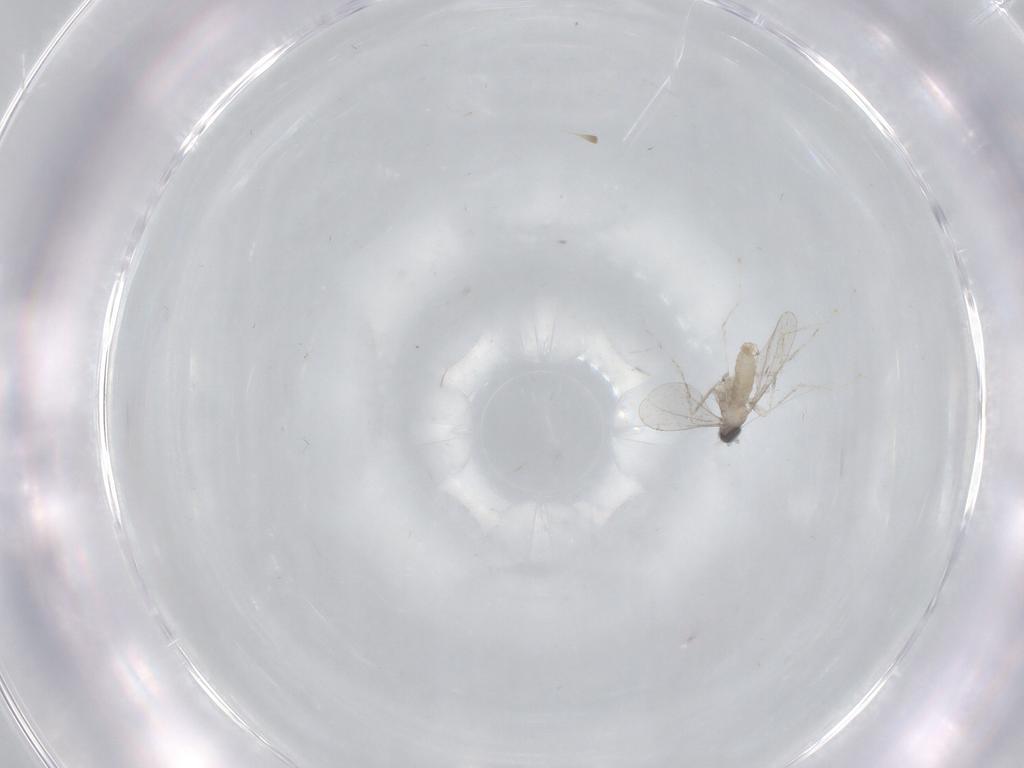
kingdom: Animalia
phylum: Arthropoda
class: Insecta
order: Diptera
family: Cecidomyiidae
